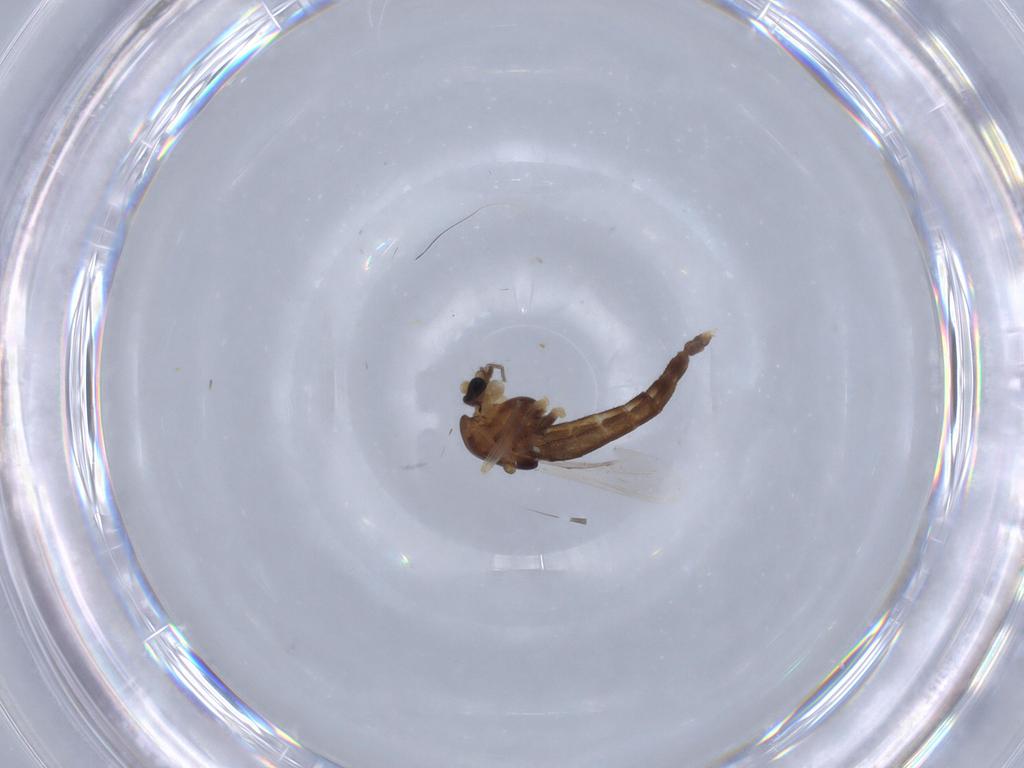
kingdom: Animalia
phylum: Arthropoda
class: Insecta
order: Diptera
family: Chironomidae
